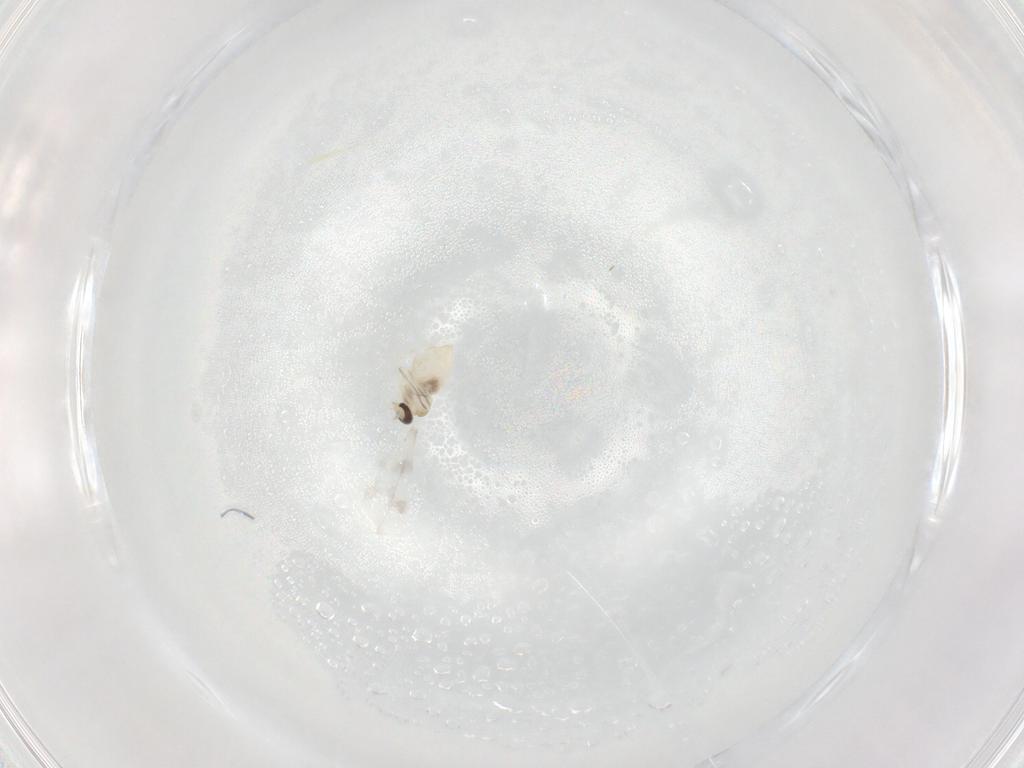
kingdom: Animalia
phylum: Arthropoda
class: Insecta
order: Diptera
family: Cecidomyiidae
